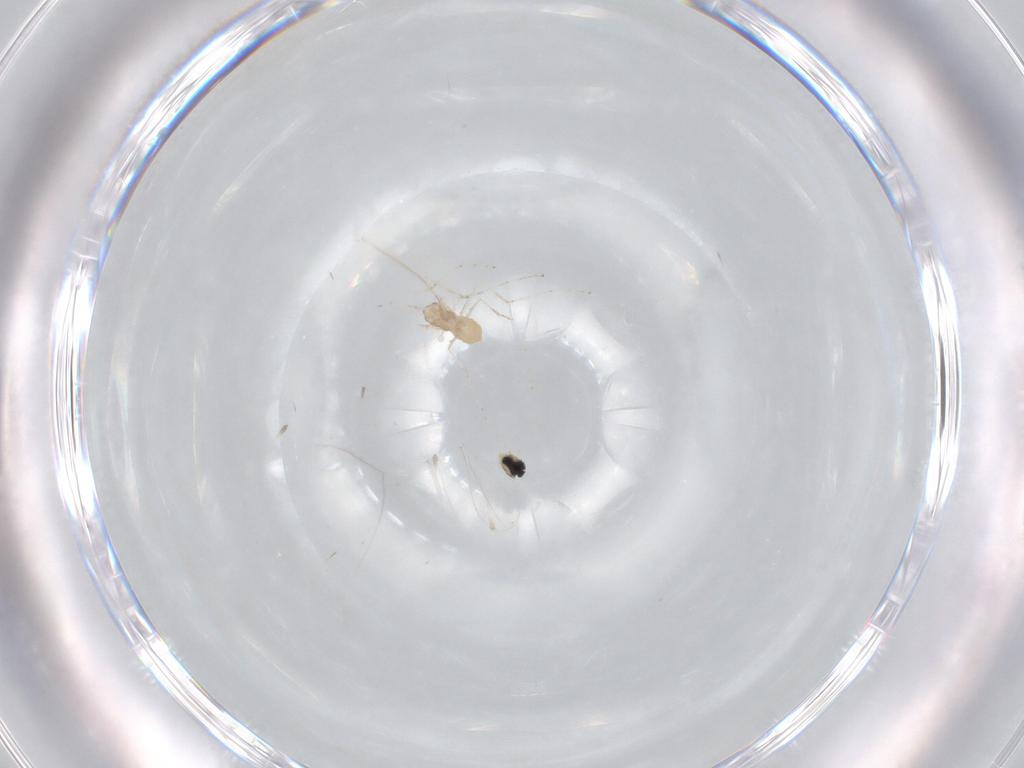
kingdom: Animalia
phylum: Arthropoda
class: Insecta
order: Diptera
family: Cecidomyiidae
